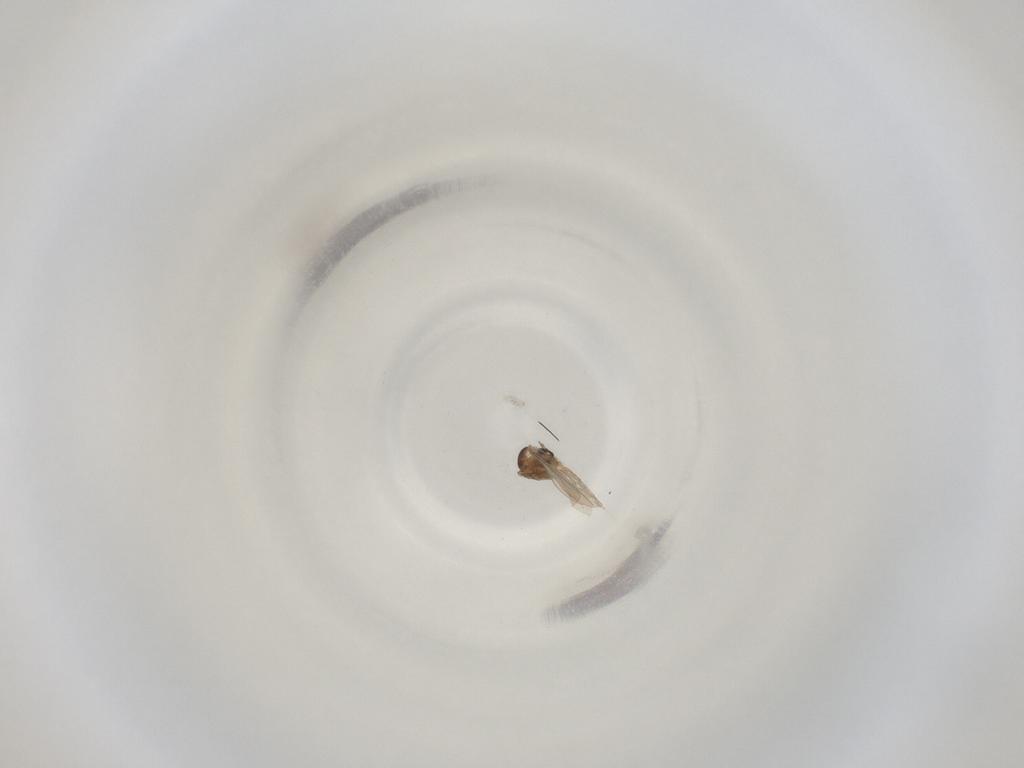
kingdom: Animalia
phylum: Arthropoda
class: Insecta
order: Diptera
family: Cecidomyiidae
